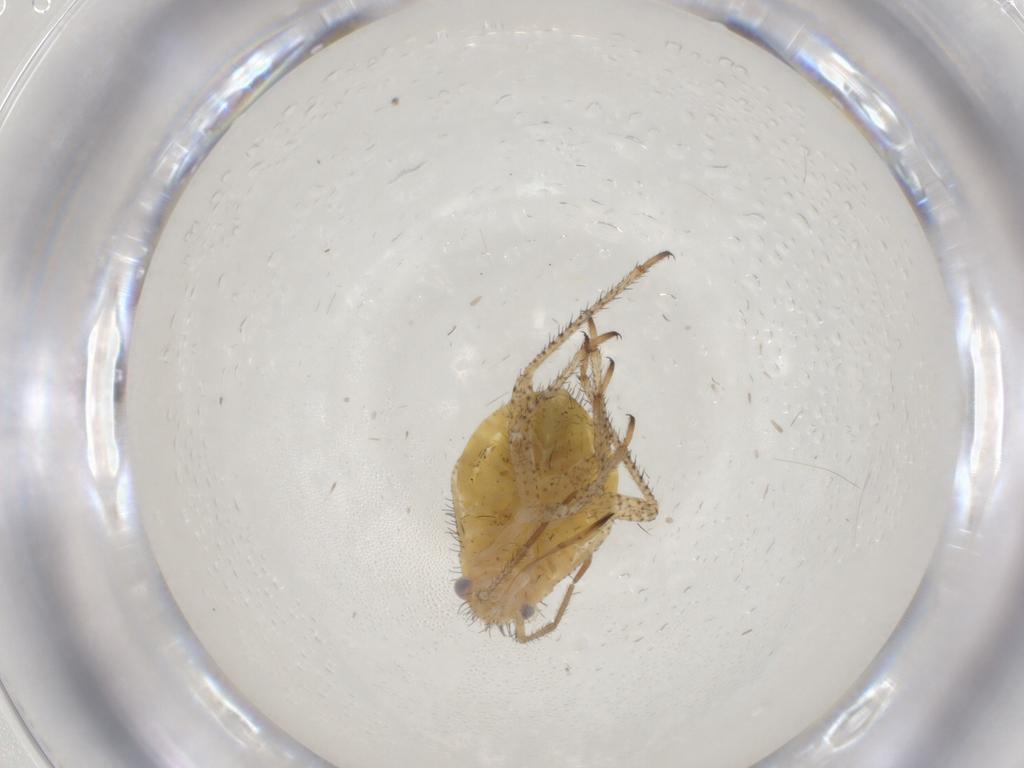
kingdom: Animalia
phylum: Arthropoda
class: Insecta
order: Hemiptera
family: Miridae
